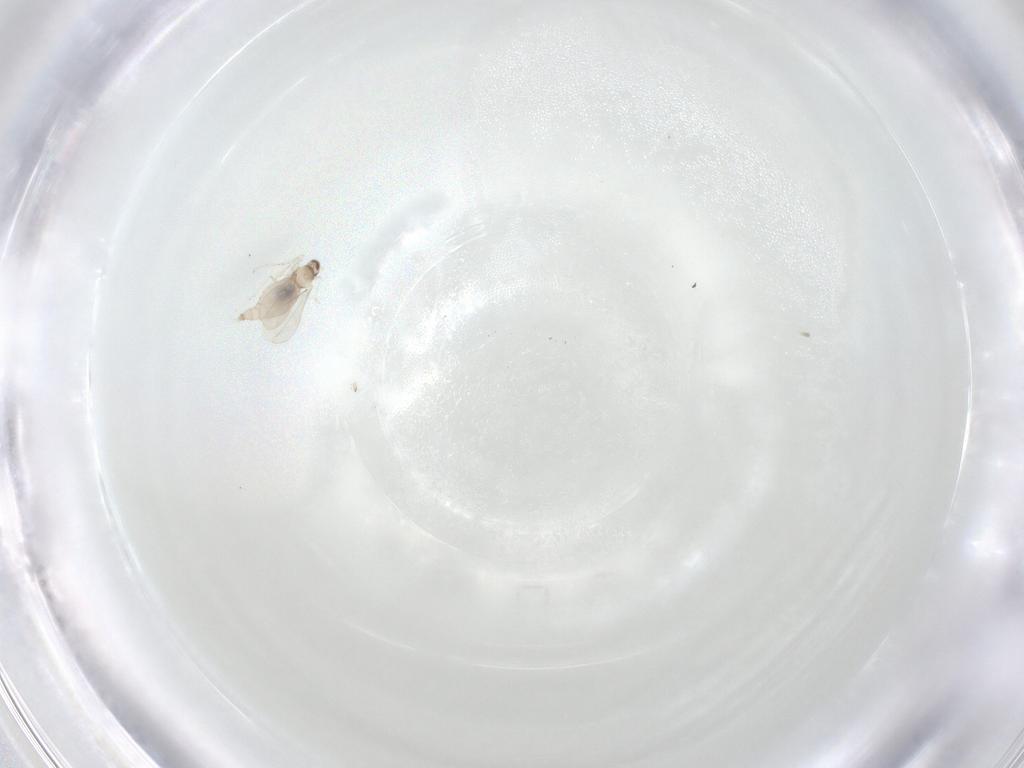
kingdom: Animalia
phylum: Arthropoda
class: Insecta
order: Diptera
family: Cecidomyiidae
